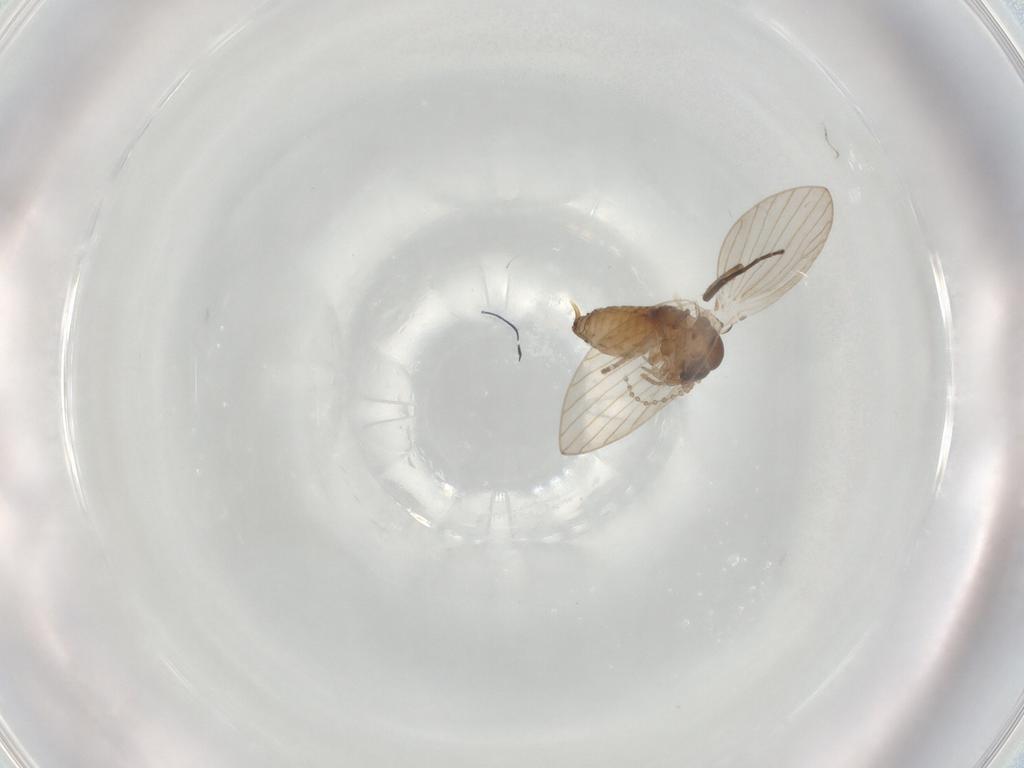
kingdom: Animalia
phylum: Arthropoda
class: Insecta
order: Diptera
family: Psychodidae
